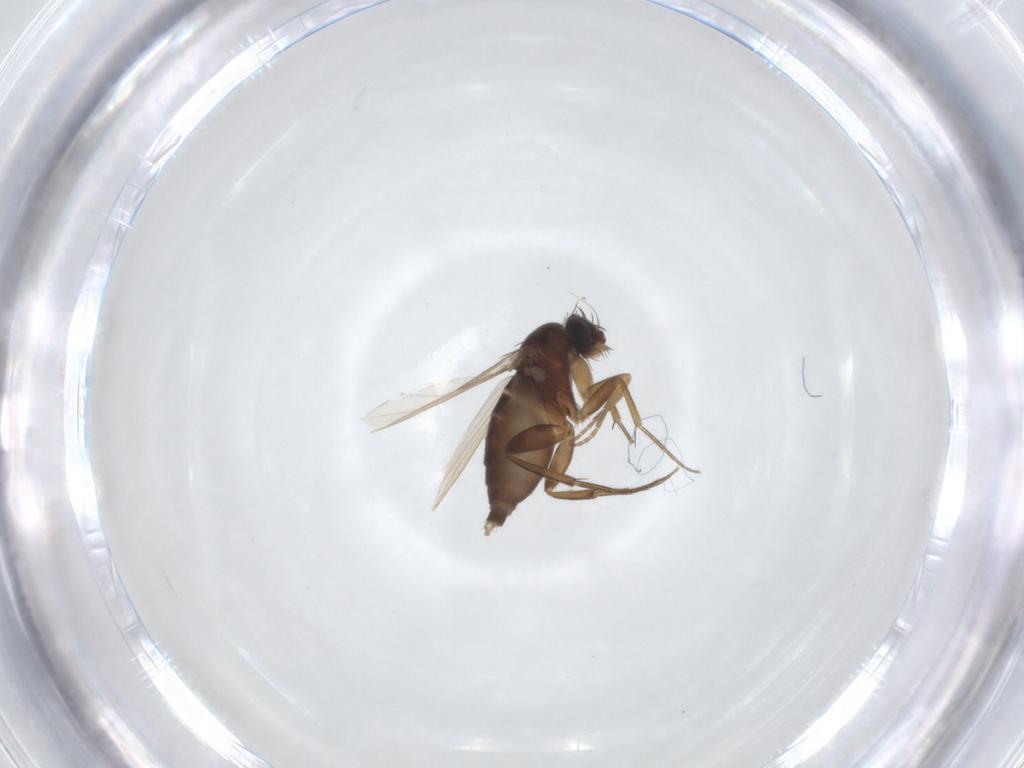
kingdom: Animalia
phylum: Arthropoda
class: Insecta
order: Diptera
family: Phoridae
